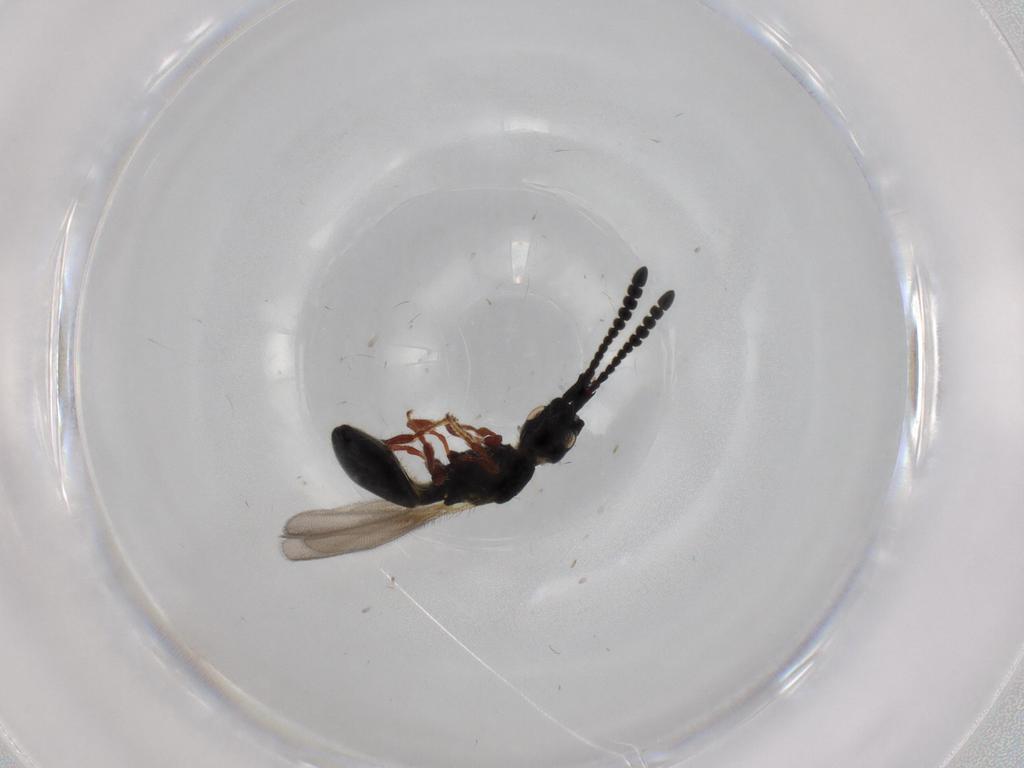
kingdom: Animalia
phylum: Arthropoda
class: Insecta
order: Hymenoptera
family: Diapriidae
